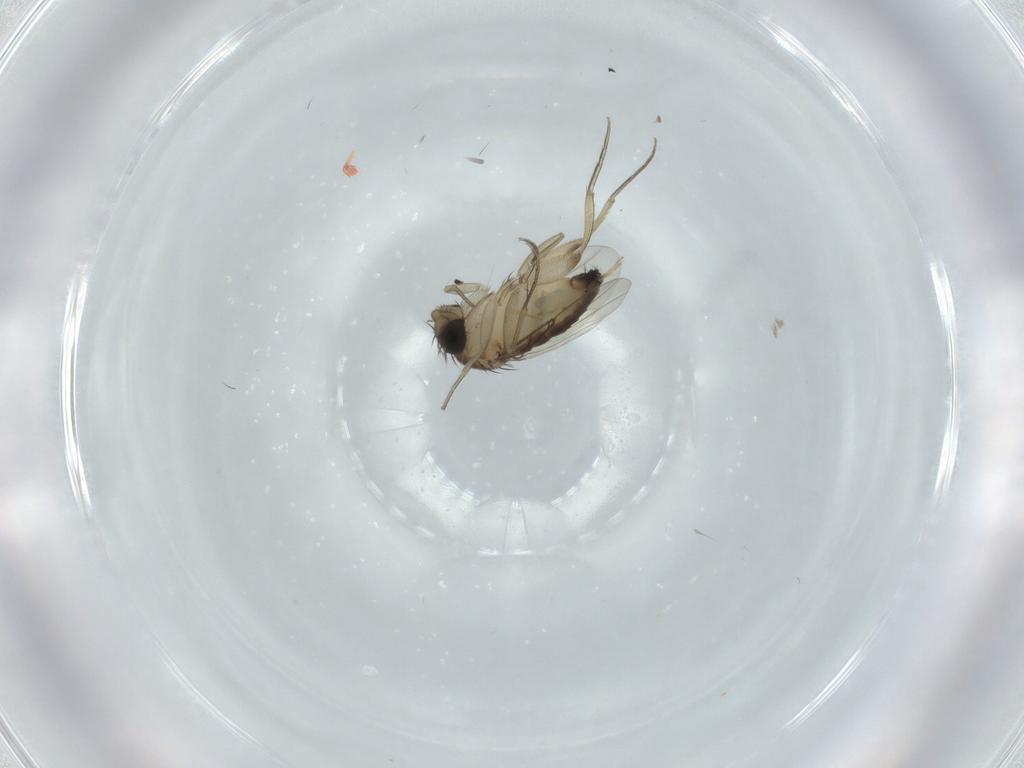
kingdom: Animalia
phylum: Arthropoda
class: Insecta
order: Diptera
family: Phoridae
